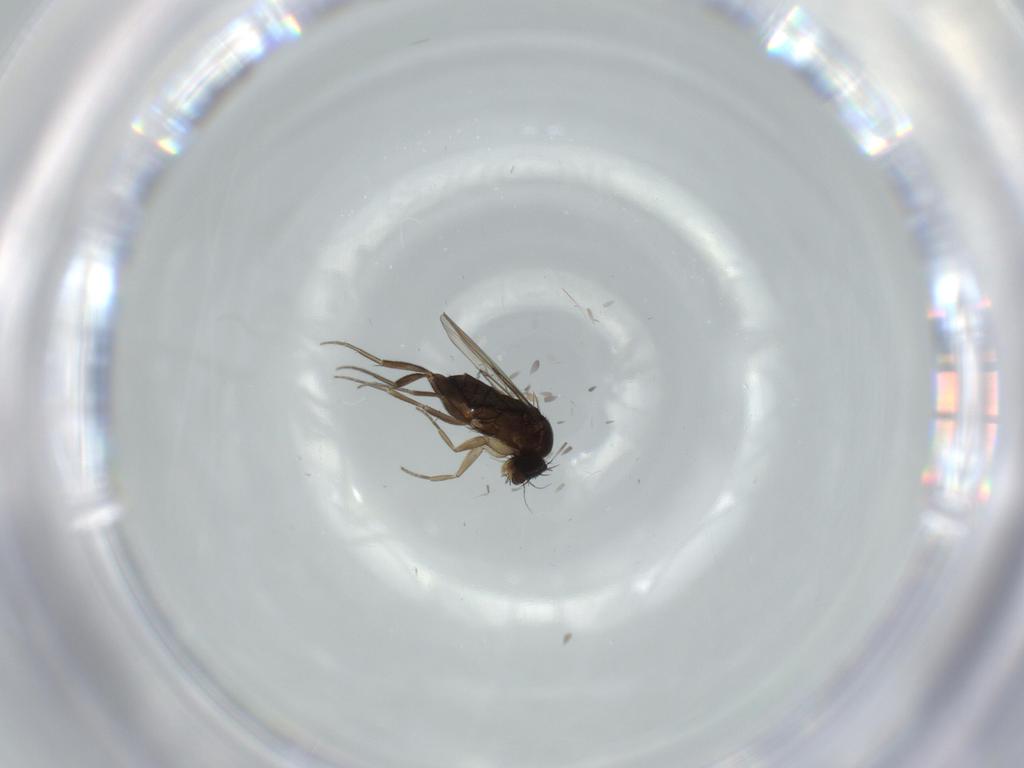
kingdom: Animalia
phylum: Arthropoda
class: Insecta
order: Diptera
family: Phoridae
